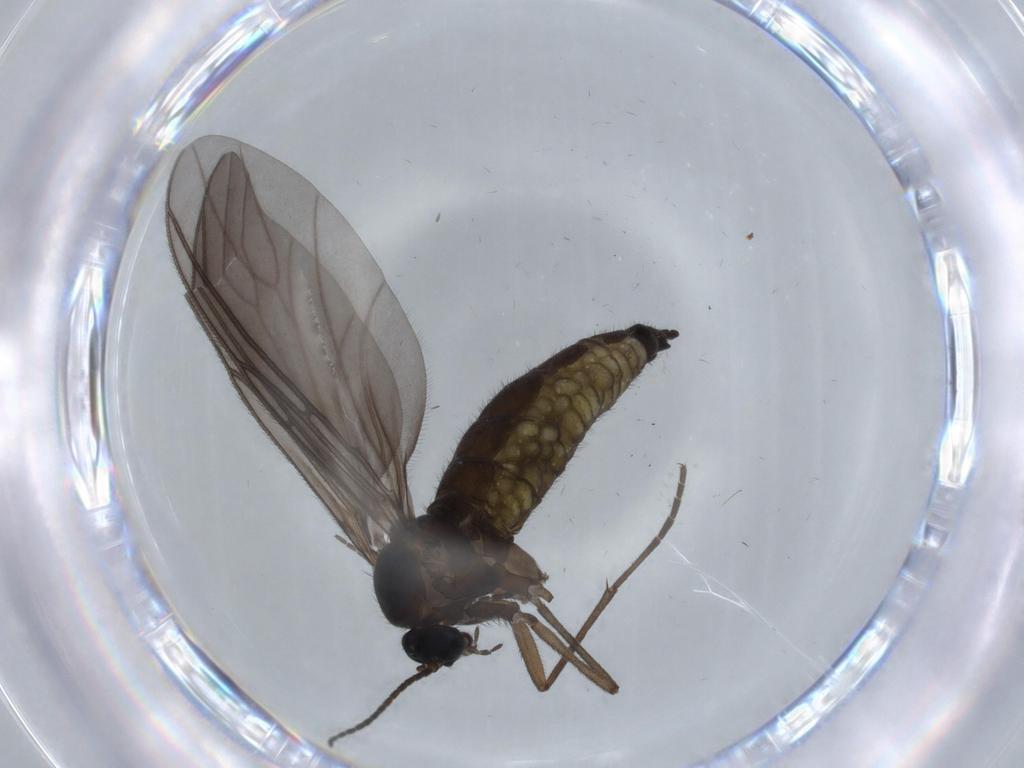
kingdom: Animalia
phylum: Arthropoda
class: Insecta
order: Diptera
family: Sciaridae
